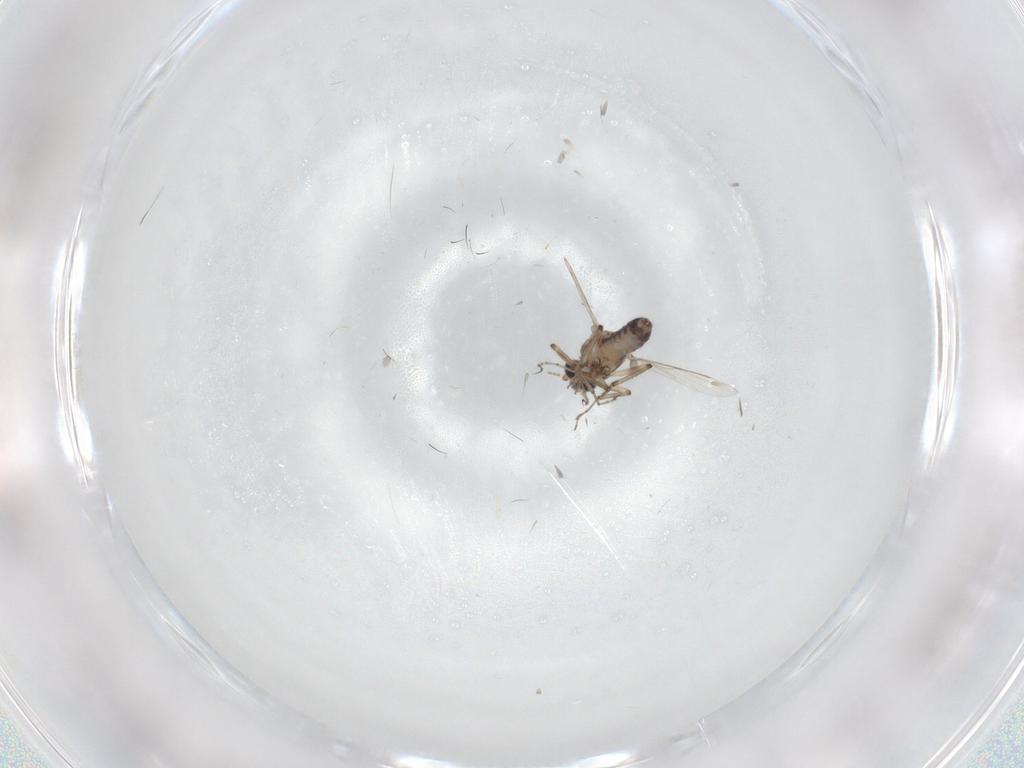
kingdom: Animalia
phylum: Arthropoda
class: Insecta
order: Diptera
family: Ceratopogonidae
